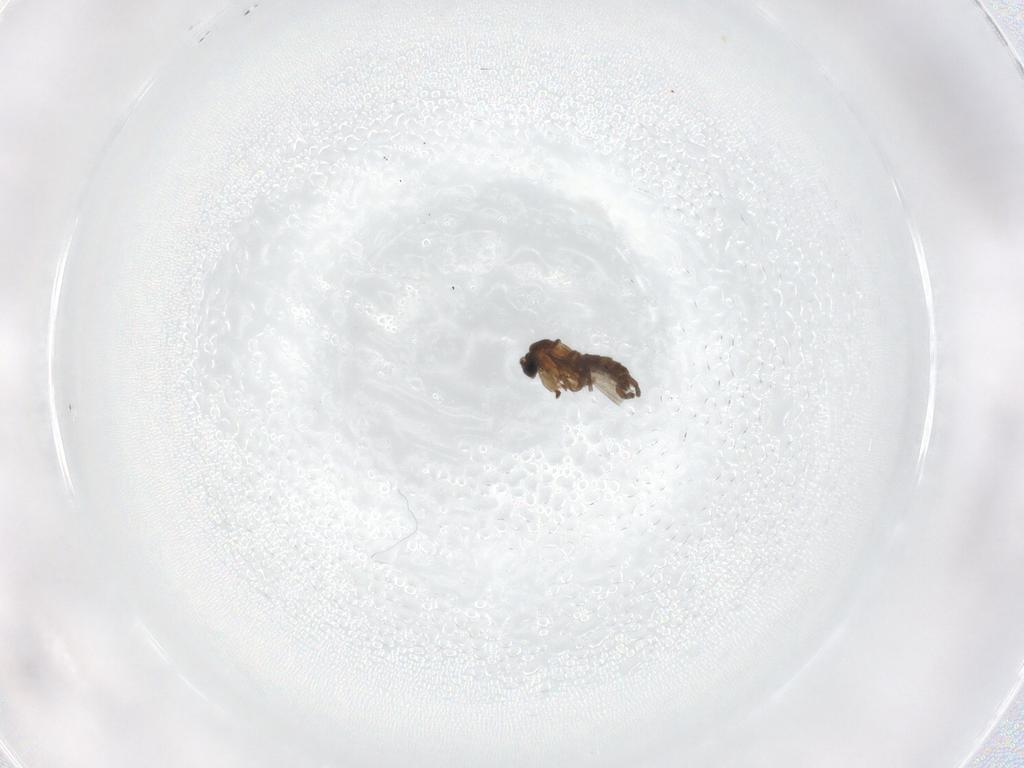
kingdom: Animalia
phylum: Arthropoda
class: Insecta
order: Diptera
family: Sciaridae
